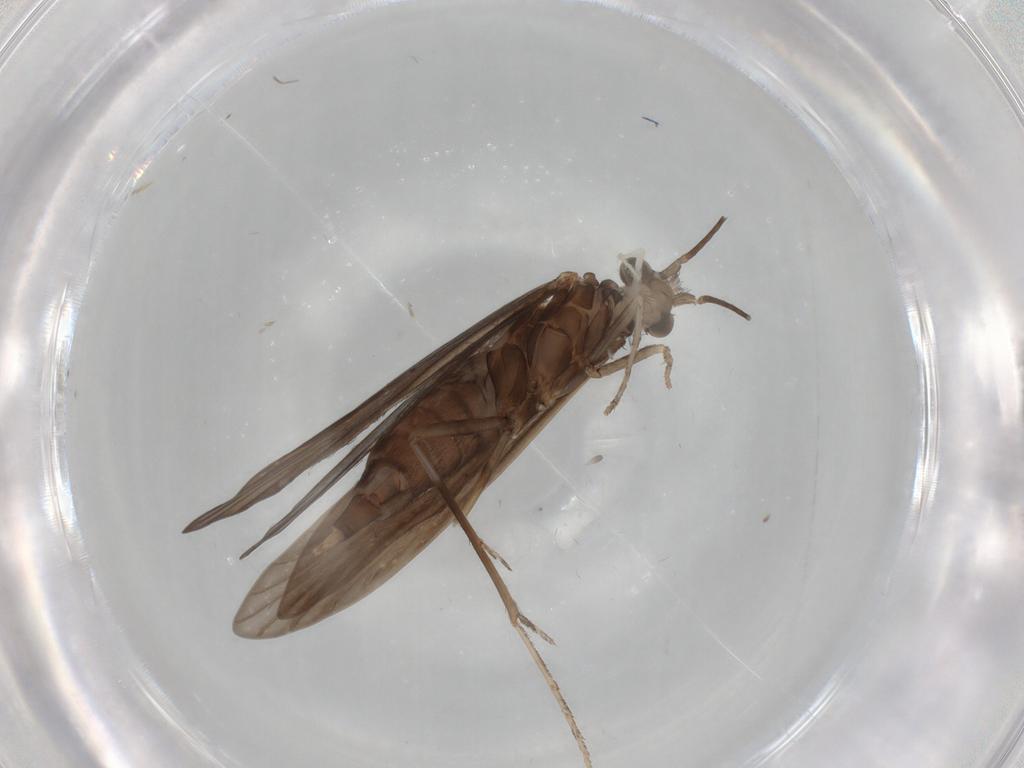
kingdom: Animalia
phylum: Arthropoda
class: Insecta
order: Trichoptera
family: Xiphocentronidae
